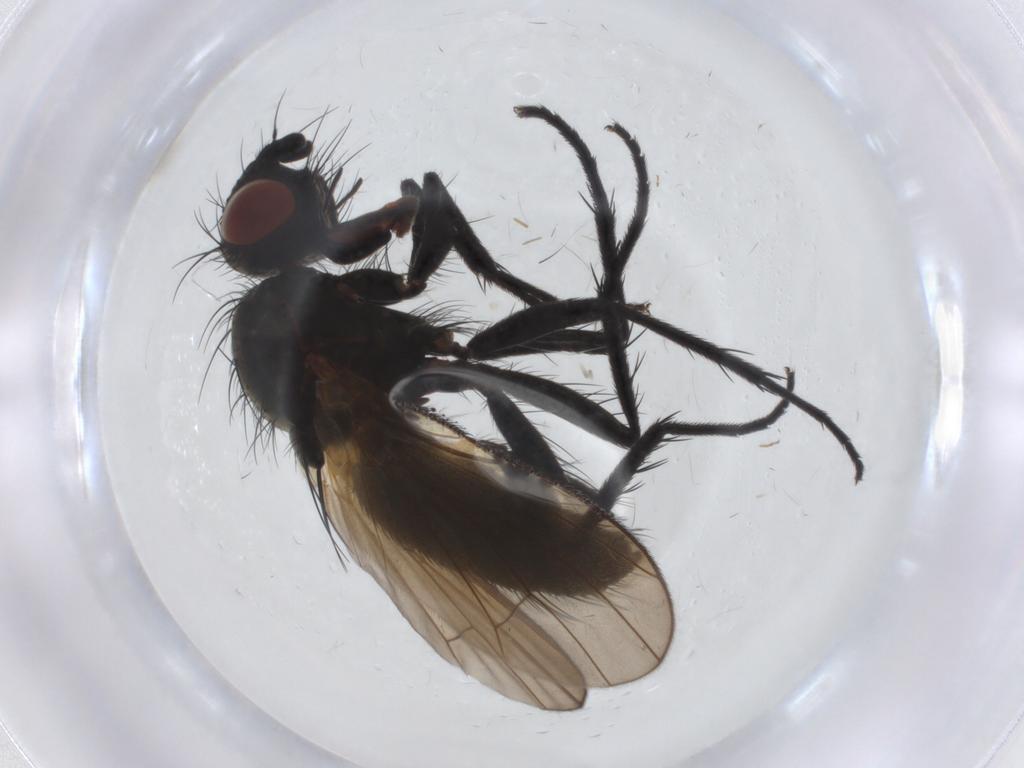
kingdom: Animalia
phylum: Arthropoda
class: Insecta
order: Diptera
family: Anthomyiidae
